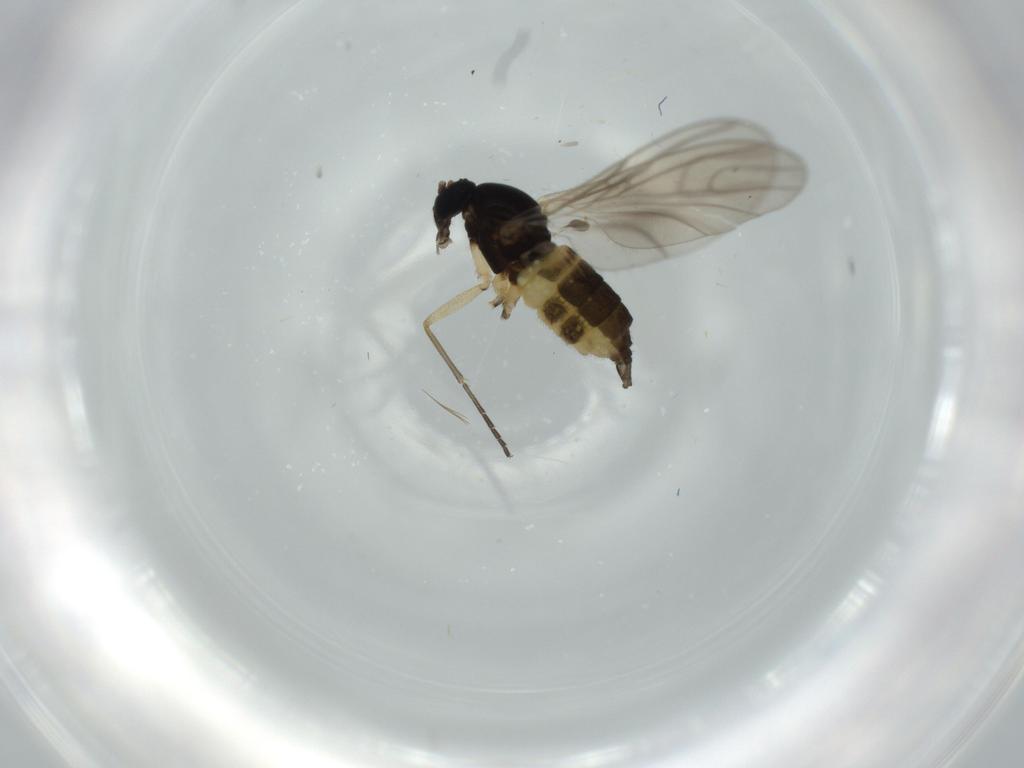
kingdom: Animalia
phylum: Arthropoda
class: Insecta
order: Diptera
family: Sciaridae
